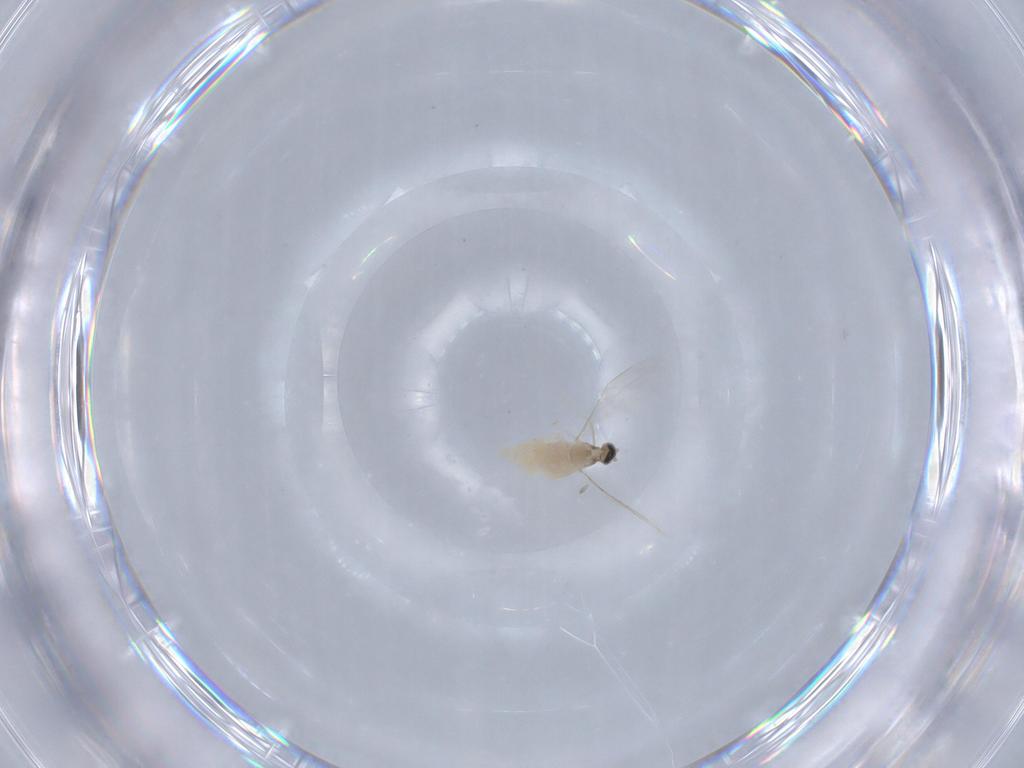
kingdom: Animalia
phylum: Arthropoda
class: Insecta
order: Diptera
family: Cecidomyiidae
